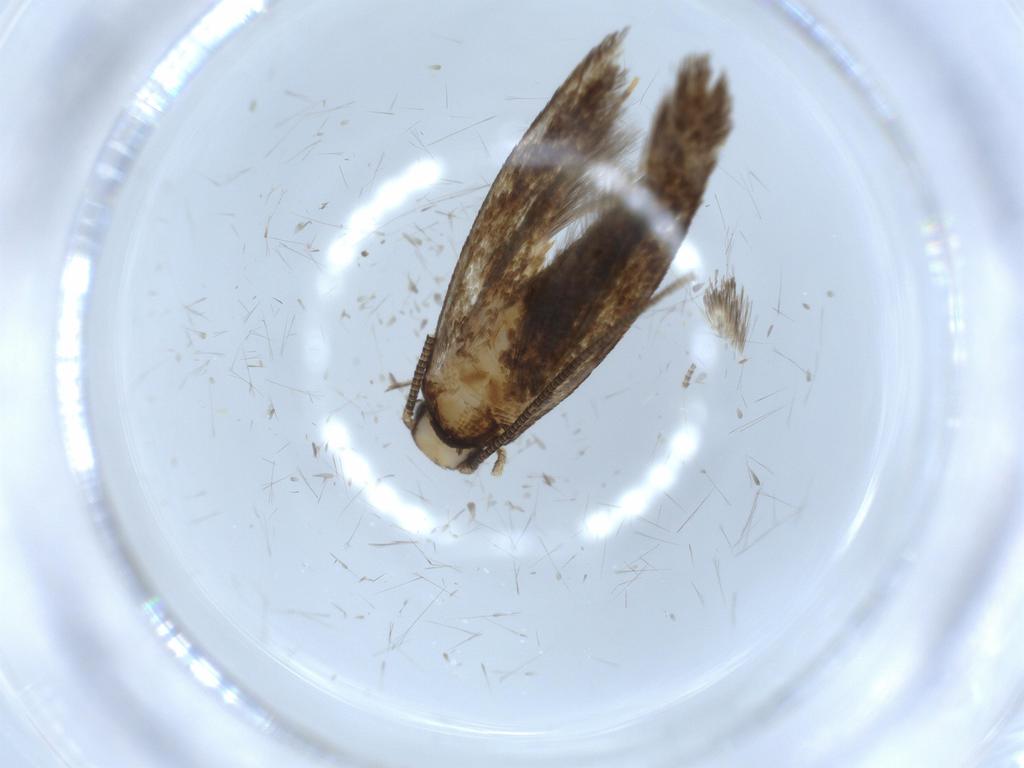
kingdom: Animalia
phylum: Arthropoda
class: Insecta
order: Lepidoptera
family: Tineidae
